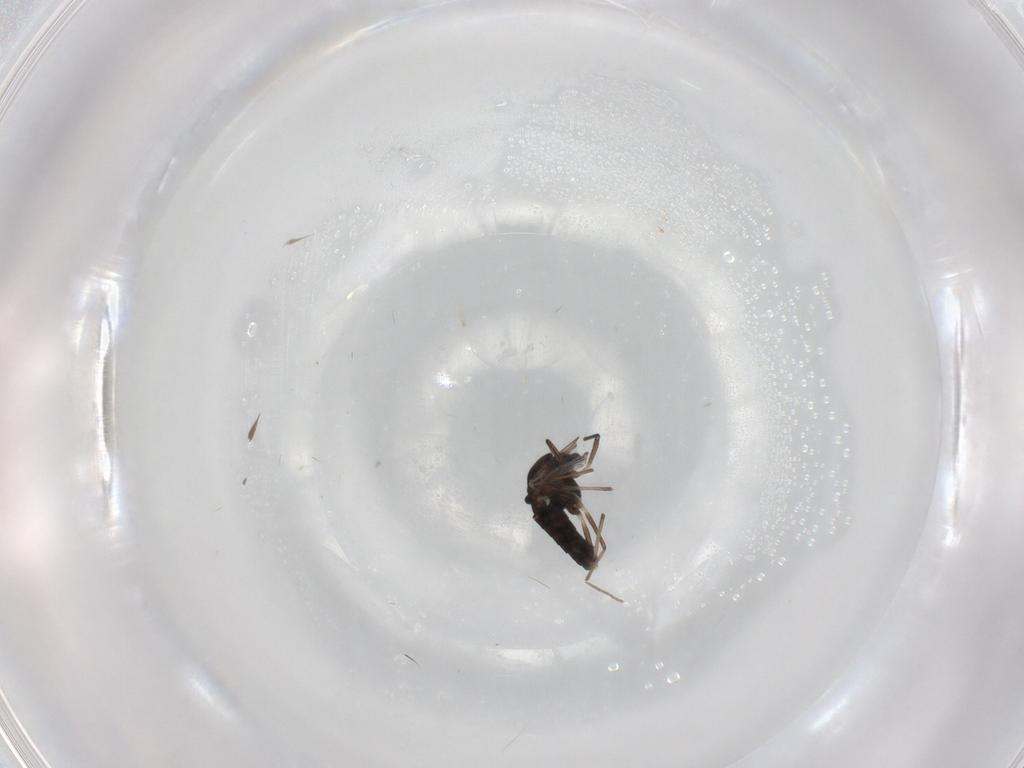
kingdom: Animalia
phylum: Arthropoda
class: Insecta
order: Diptera
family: Chironomidae
